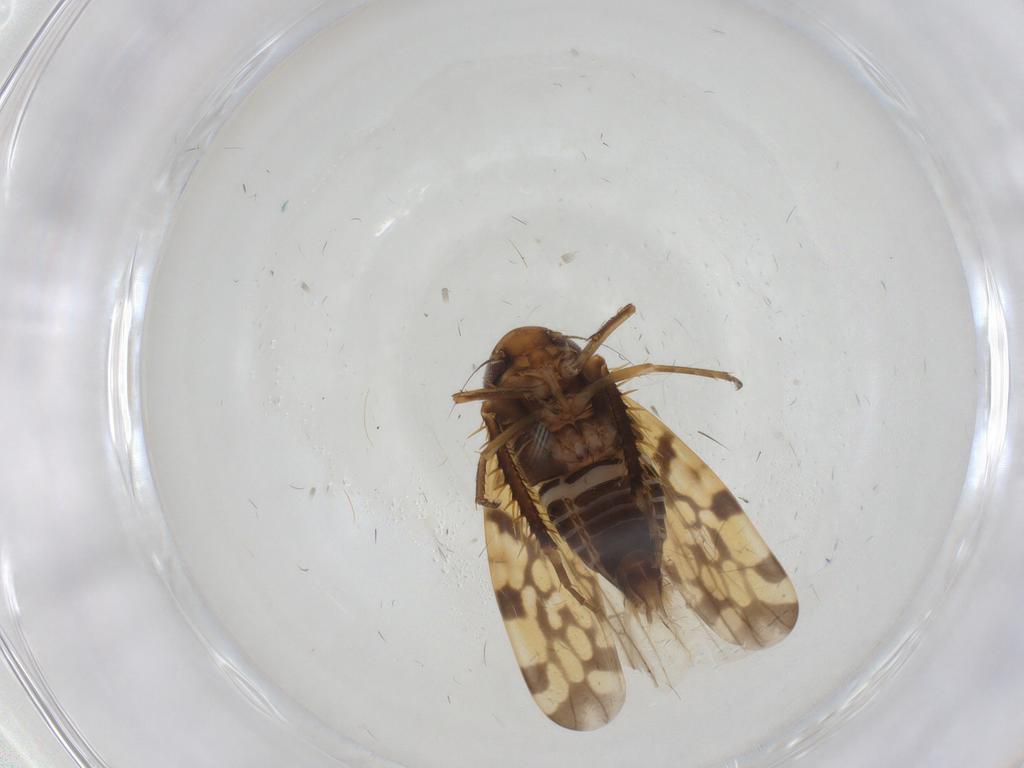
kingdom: Animalia
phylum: Arthropoda
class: Insecta
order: Hemiptera
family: Cicadellidae
